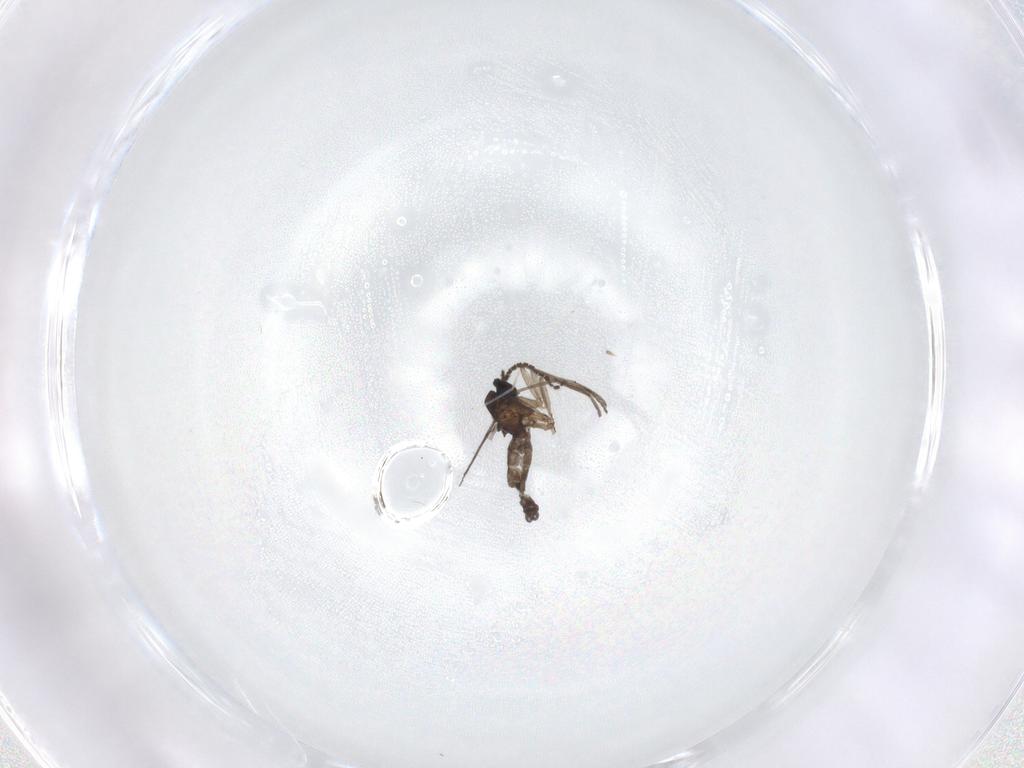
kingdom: Animalia
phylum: Arthropoda
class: Insecta
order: Diptera
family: Cecidomyiidae
